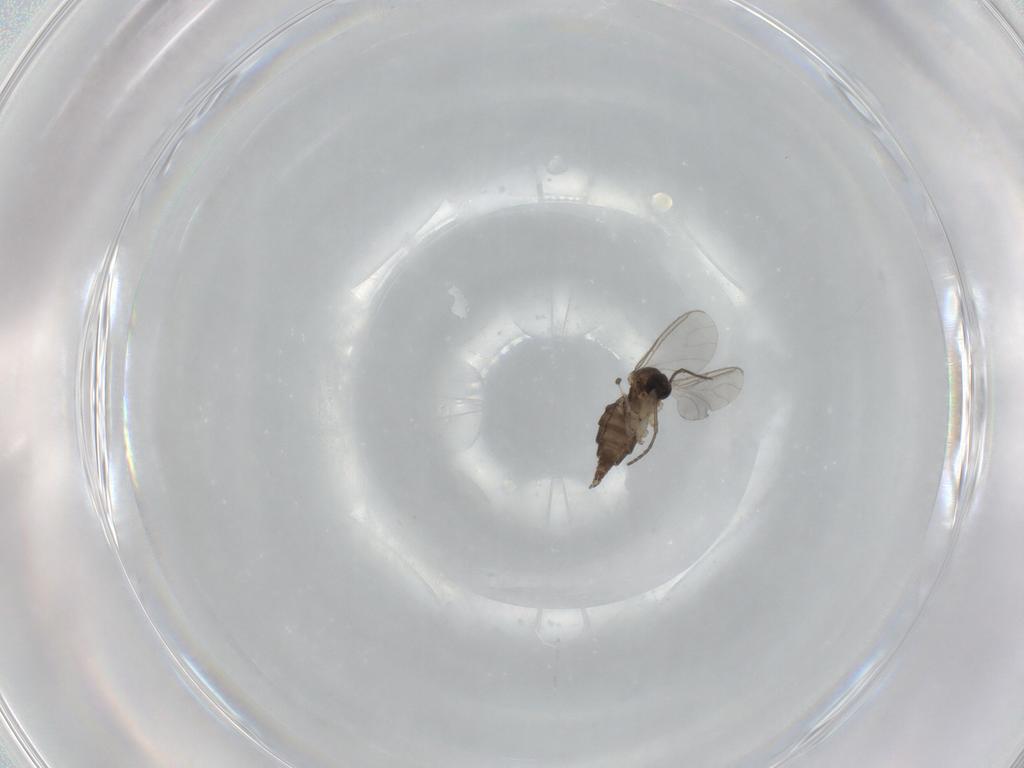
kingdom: Animalia
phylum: Arthropoda
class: Insecta
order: Diptera
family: Sciaridae
